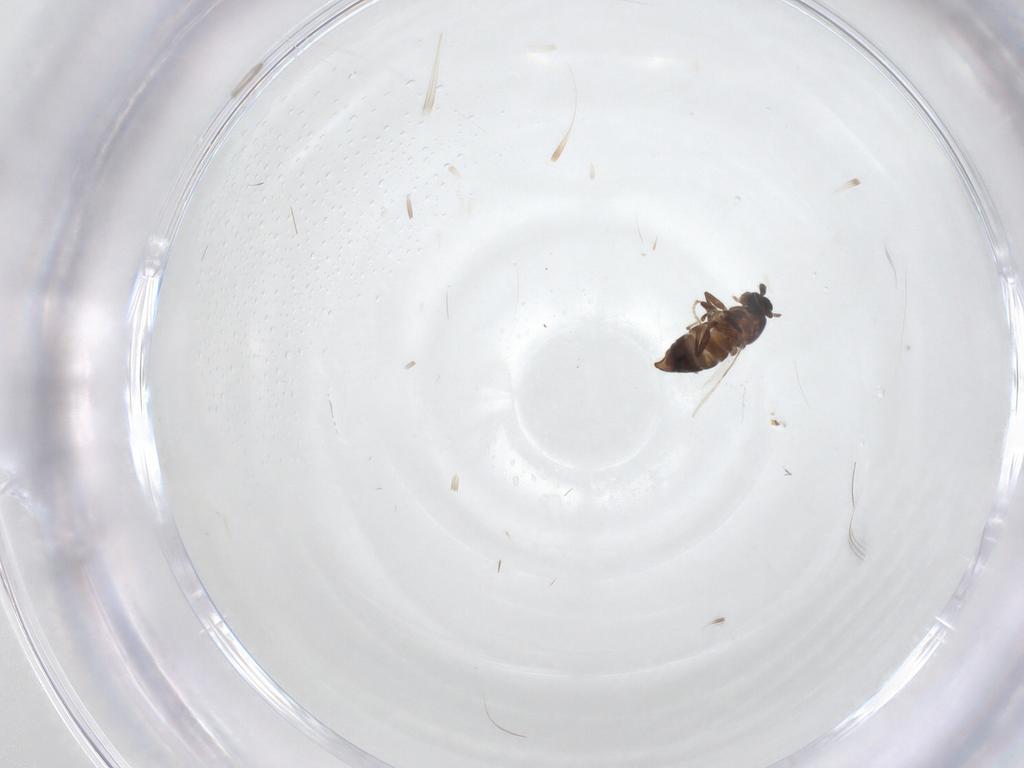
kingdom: Animalia
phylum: Arthropoda
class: Insecta
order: Diptera
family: Scatopsidae
